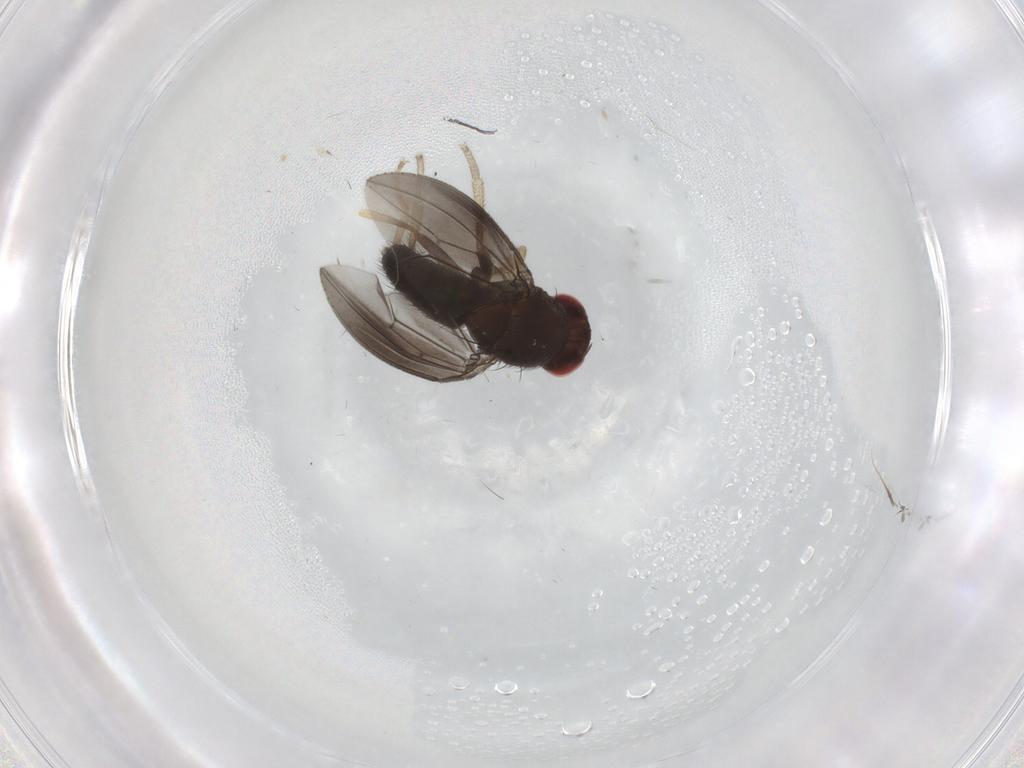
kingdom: Animalia
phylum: Arthropoda
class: Insecta
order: Diptera
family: Drosophilidae
